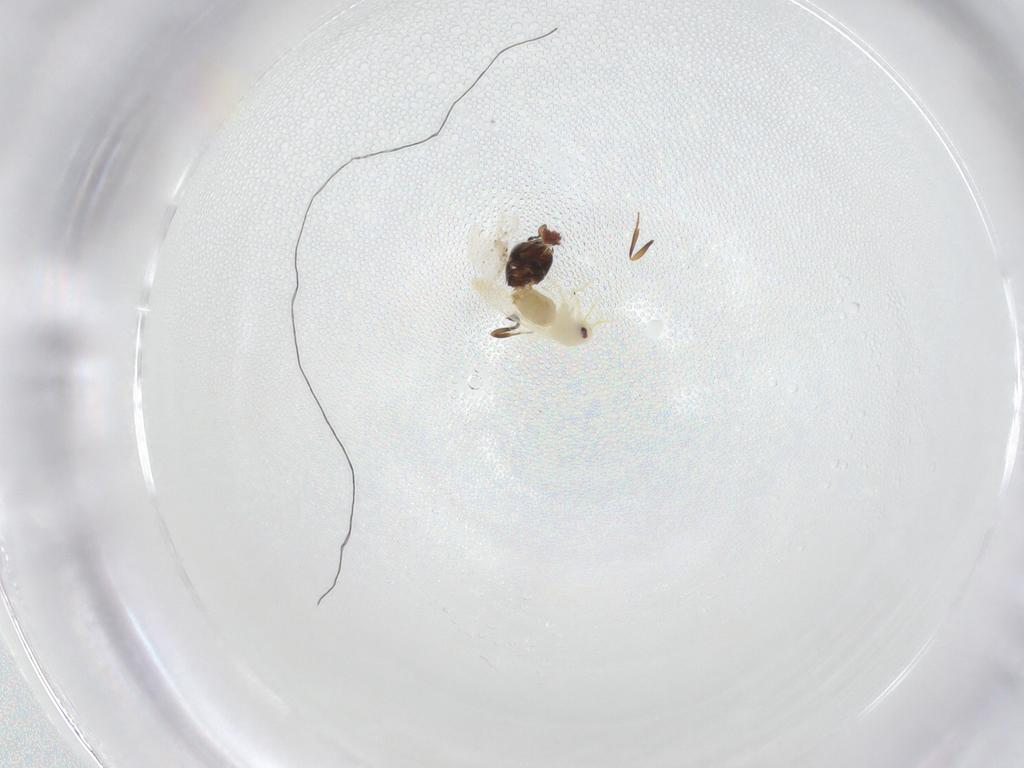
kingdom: Animalia
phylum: Arthropoda
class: Insecta
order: Hemiptera
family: Aleyrodidae
